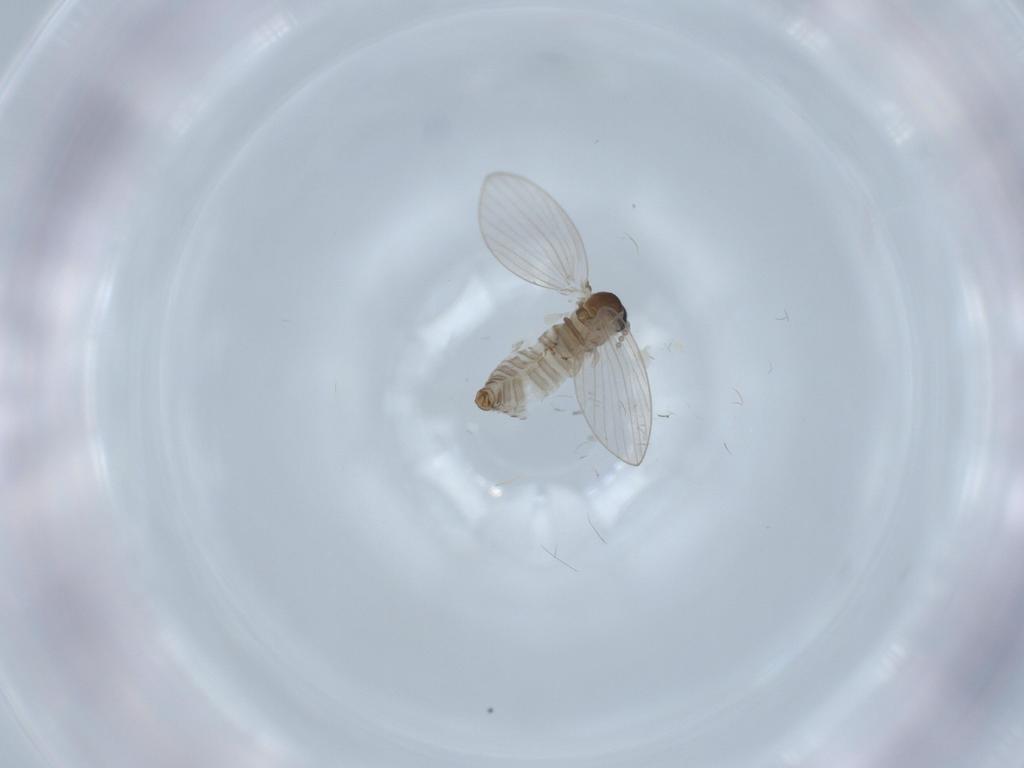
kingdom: Animalia
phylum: Arthropoda
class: Insecta
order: Diptera
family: Psychodidae
